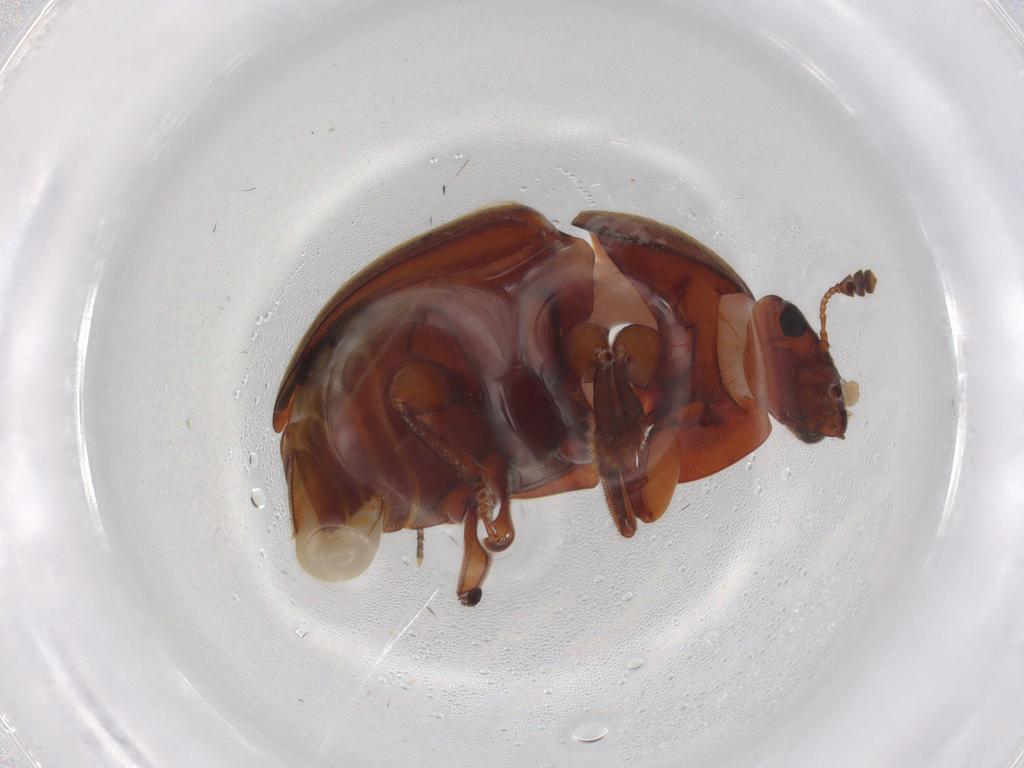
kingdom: Animalia
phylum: Arthropoda
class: Insecta
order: Coleoptera
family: Nitidulidae
